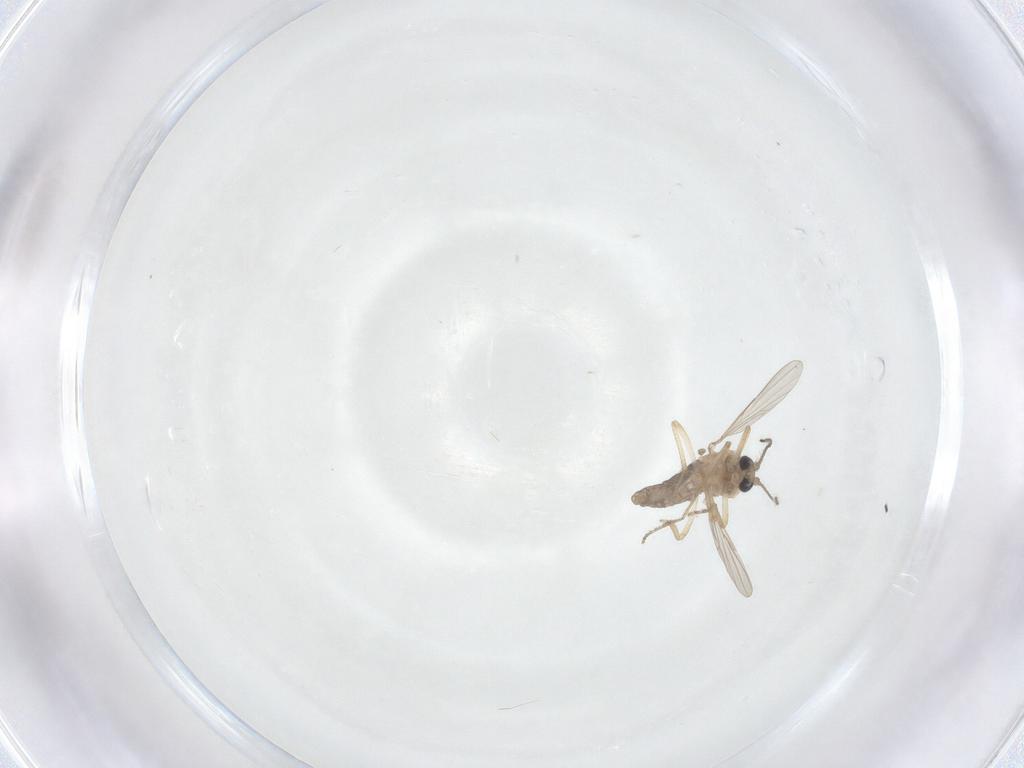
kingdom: Animalia
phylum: Arthropoda
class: Insecta
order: Diptera
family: Ceratopogonidae
